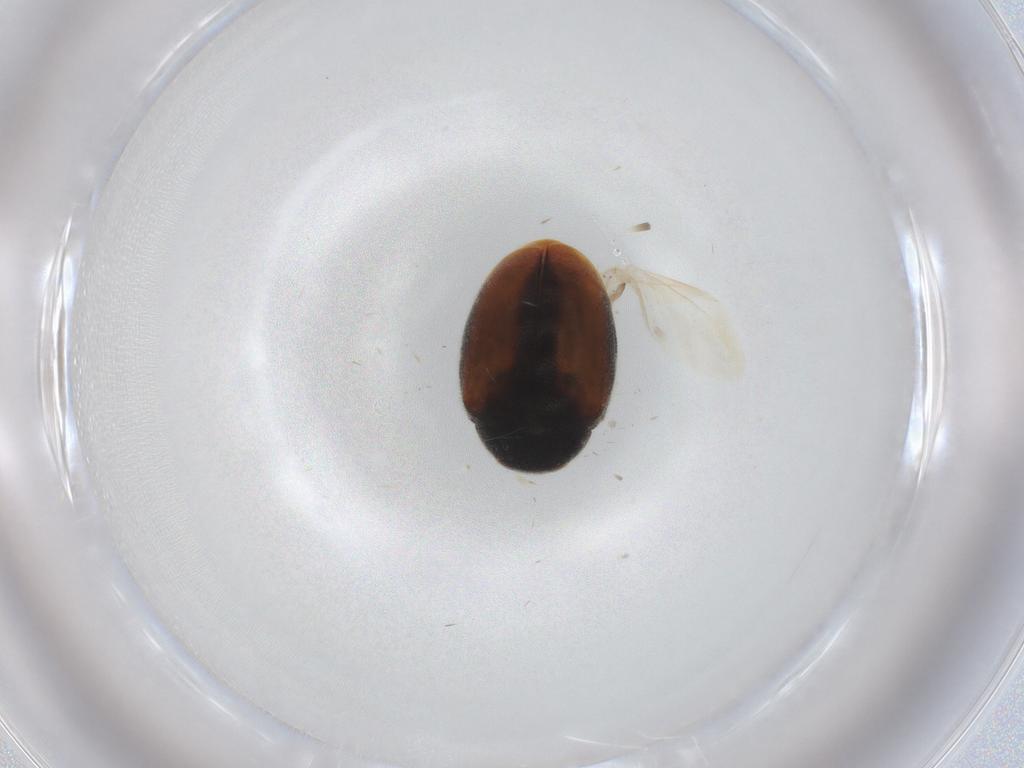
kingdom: Animalia
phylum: Arthropoda
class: Insecta
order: Coleoptera
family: Coccinellidae
